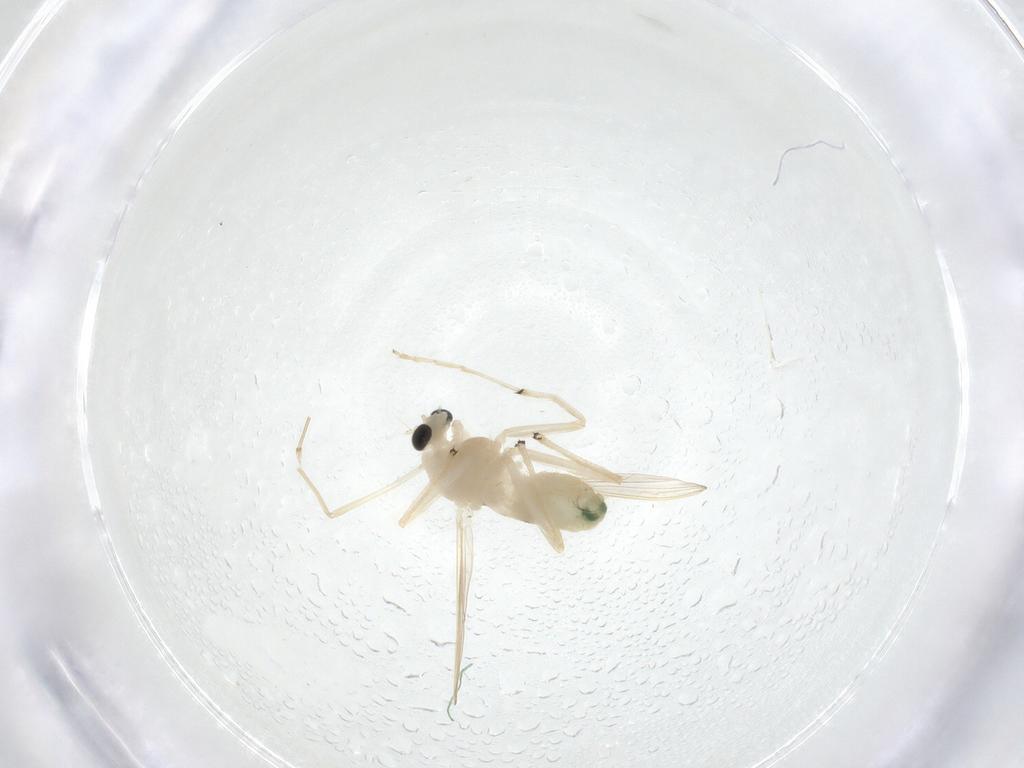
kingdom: Animalia
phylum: Arthropoda
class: Insecta
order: Diptera
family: Chironomidae
